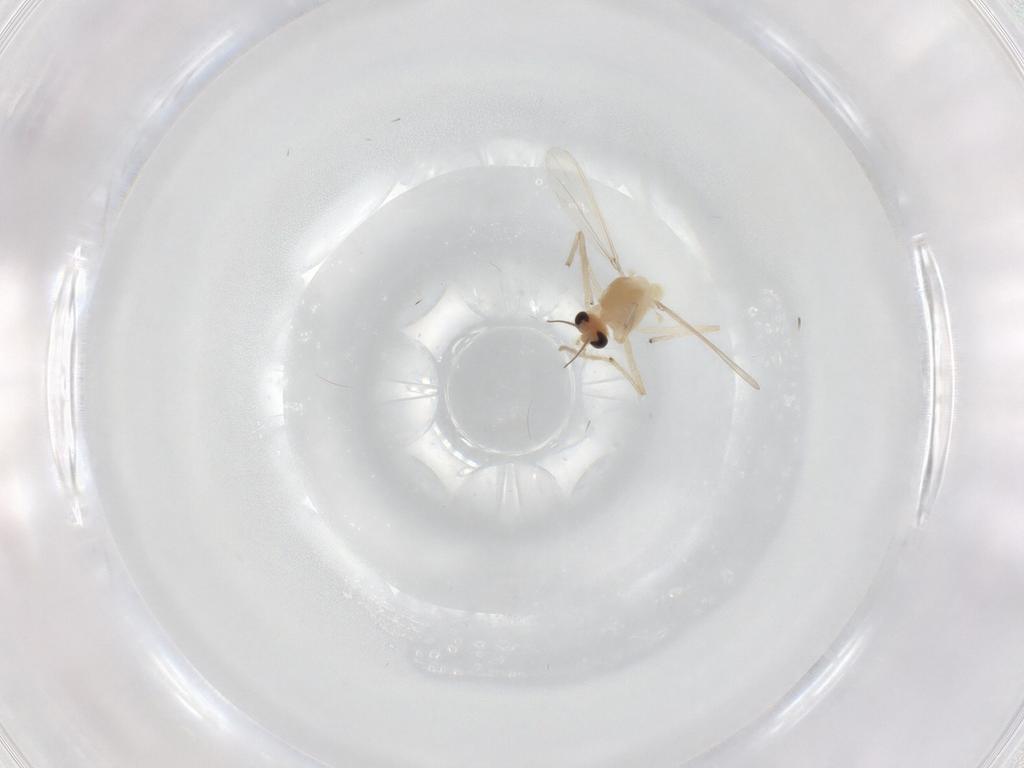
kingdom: Animalia
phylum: Arthropoda
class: Insecta
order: Diptera
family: Chironomidae
